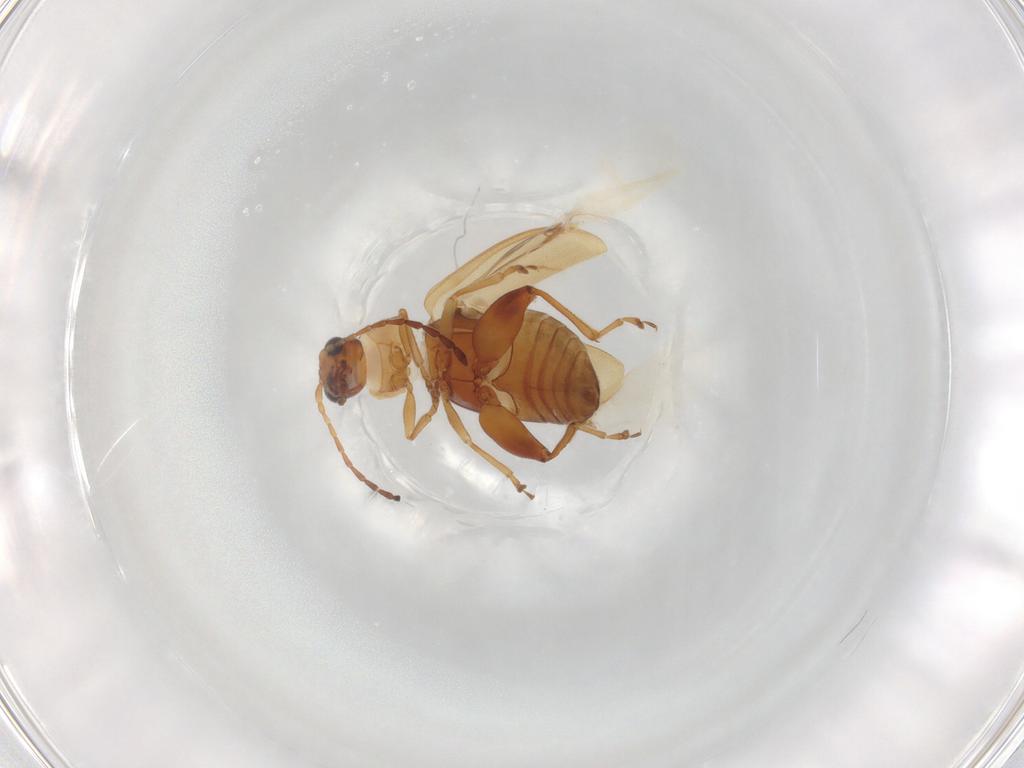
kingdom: Animalia
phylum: Arthropoda
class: Insecta
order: Coleoptera
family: Chrysomelidae
